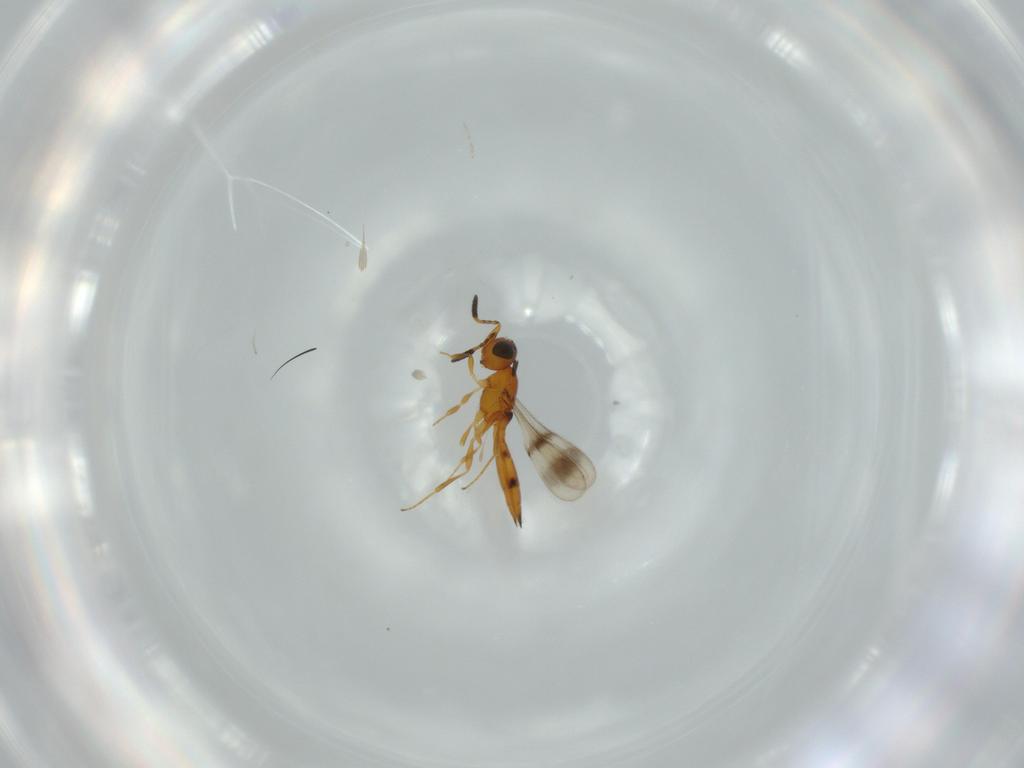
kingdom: Animalia
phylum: Arthropoda
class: Insecta
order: Hymenoptera
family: Scelionidae
